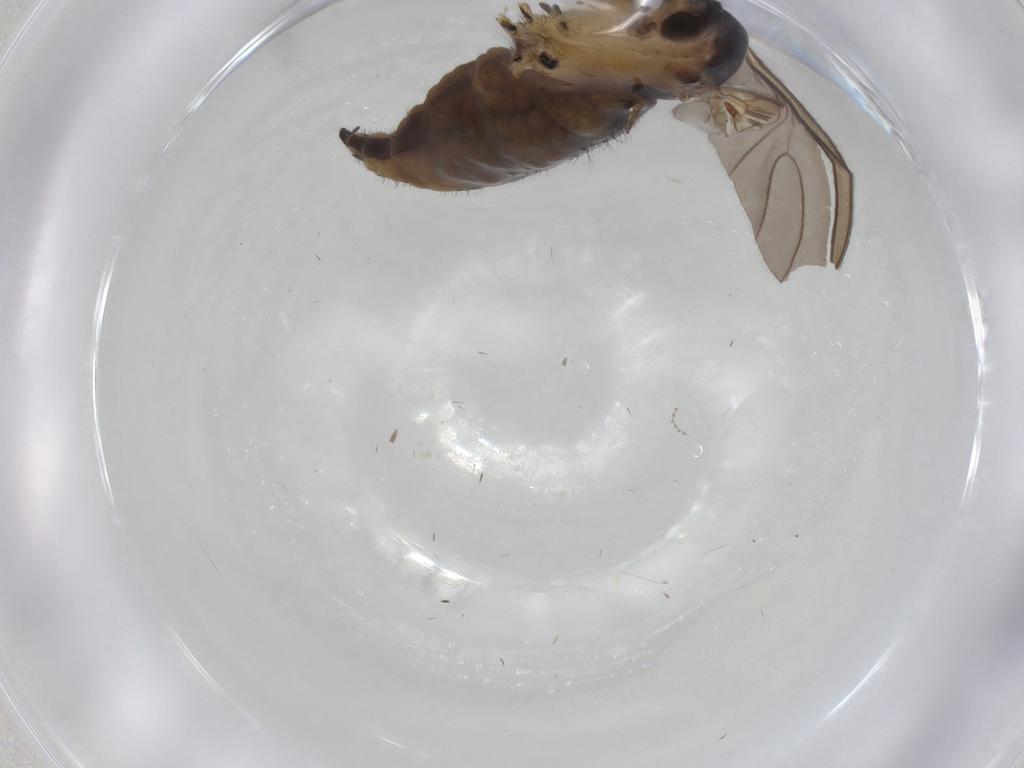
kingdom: Animalia
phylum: Arthropoda
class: Insecta
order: Diptera
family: Sciaridae
